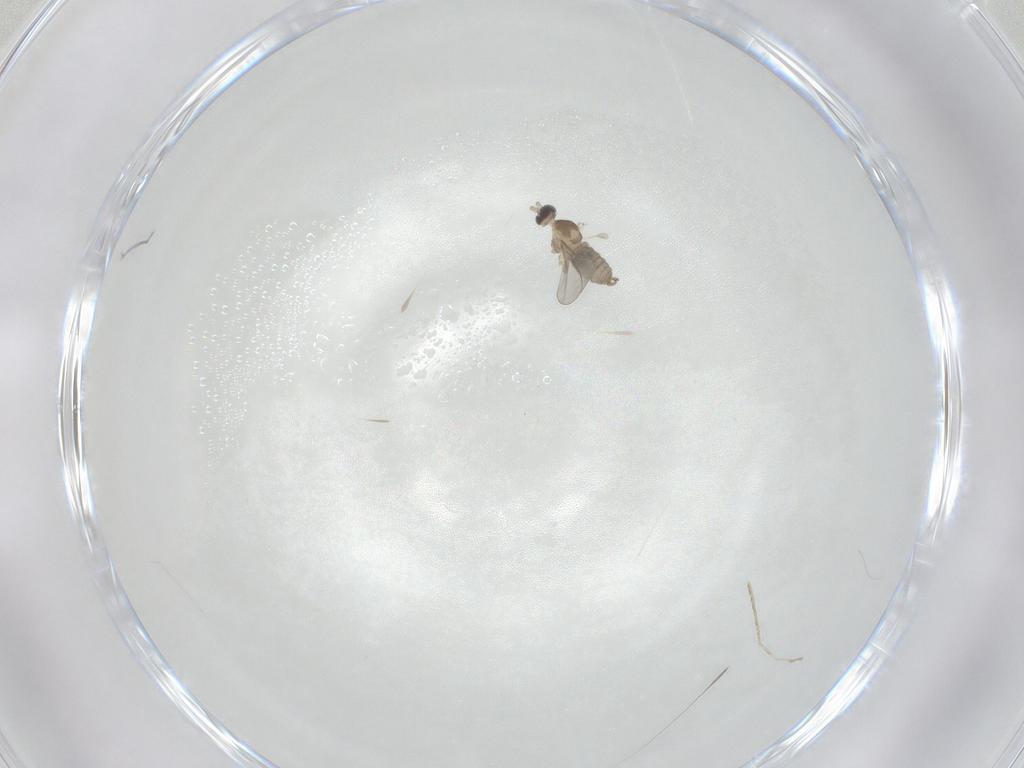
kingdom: Animalia
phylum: Arthropoda
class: Insecta
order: Diptera
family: Cecidomyiidae
